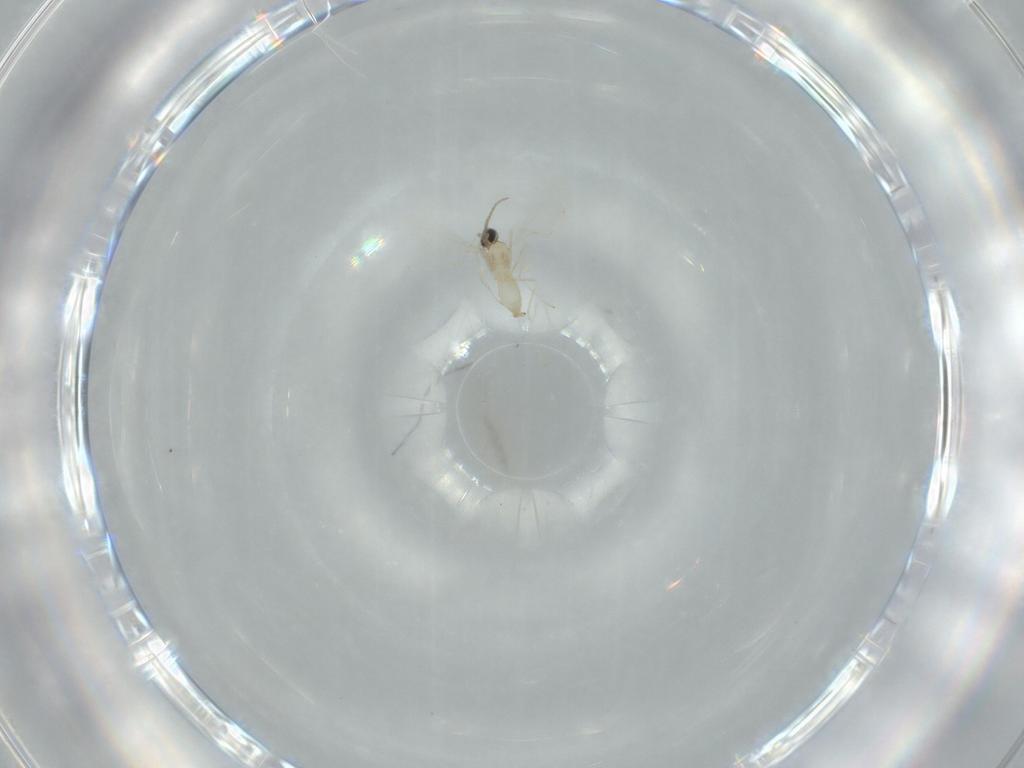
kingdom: Animalia
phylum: Arthropoda
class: Insecta
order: Diptera
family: Cecidomyiidae
